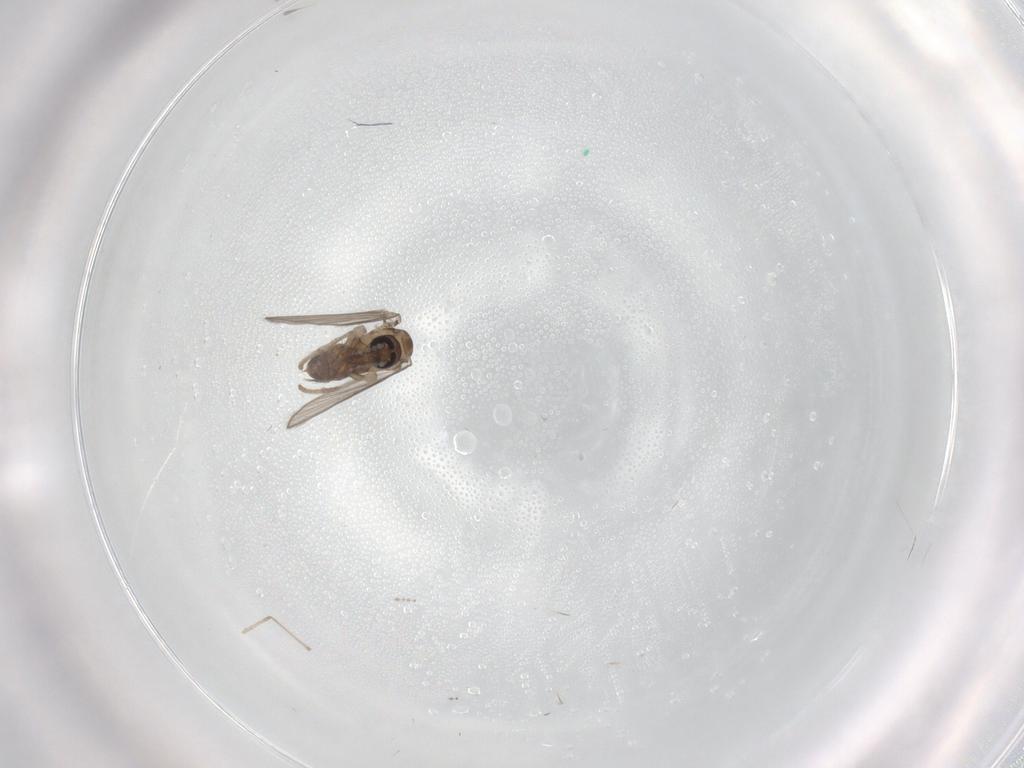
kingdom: Animalia
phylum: Arthropoda
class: Insecta
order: Diptera
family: Psychodidae
